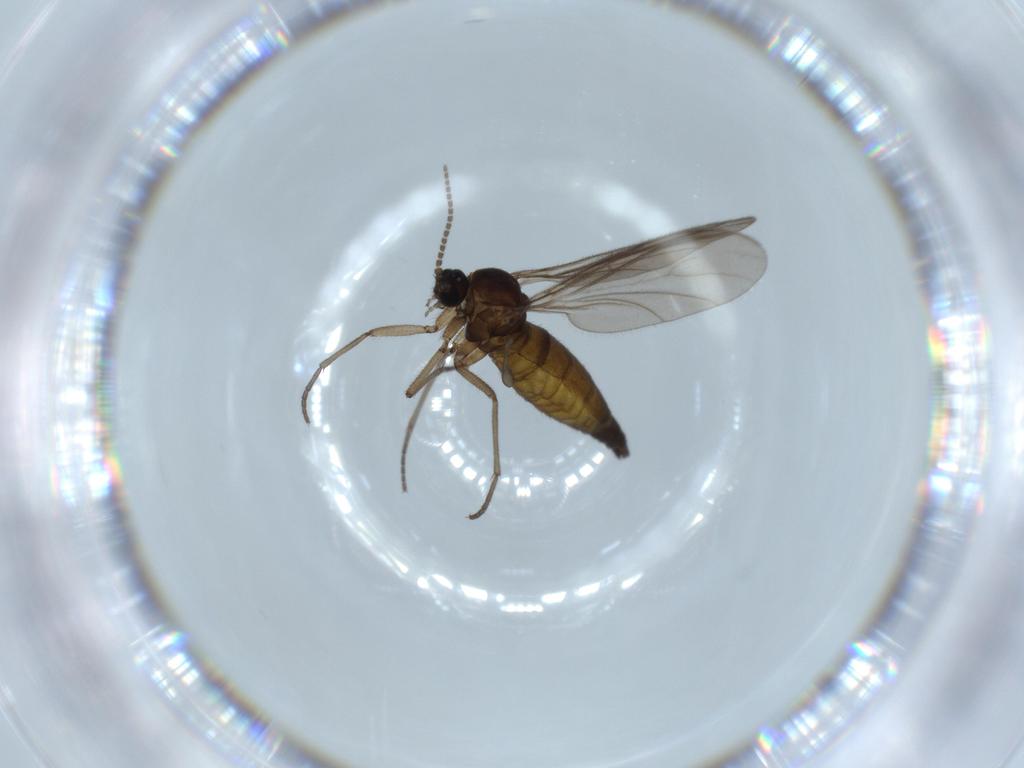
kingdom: Animalia
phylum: Arthropoda
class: Insecta
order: Diptera
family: Sciaridae
